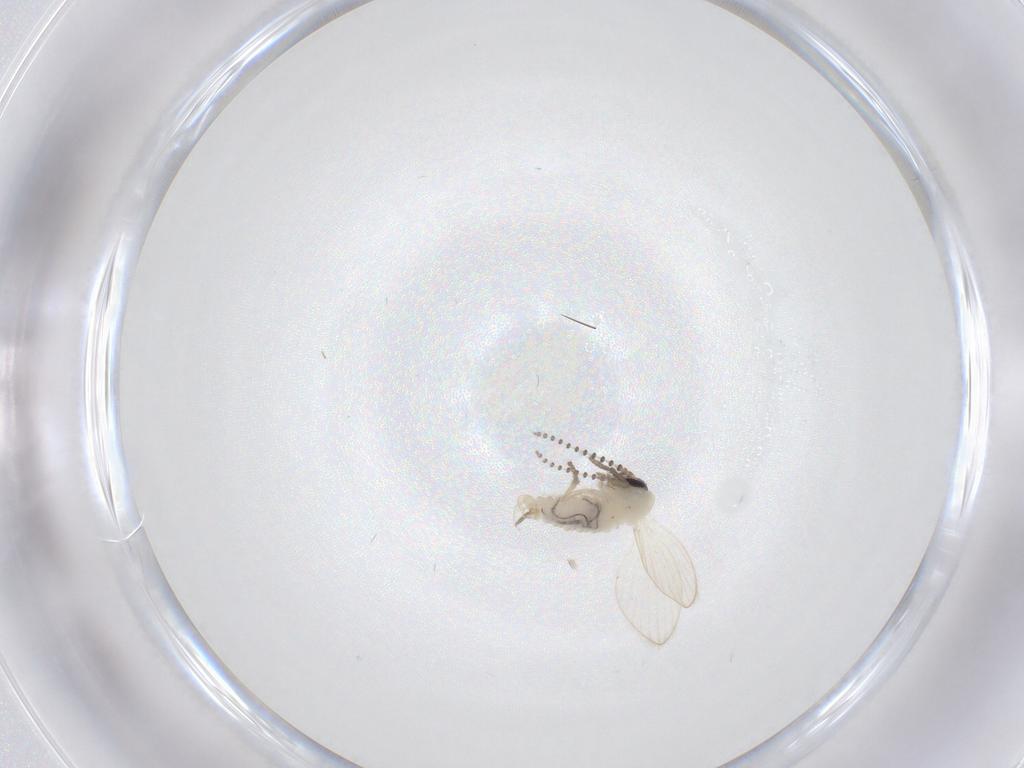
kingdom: Animalia
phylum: Arthropoda
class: Insecta
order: Diptera
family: Psychodidae
